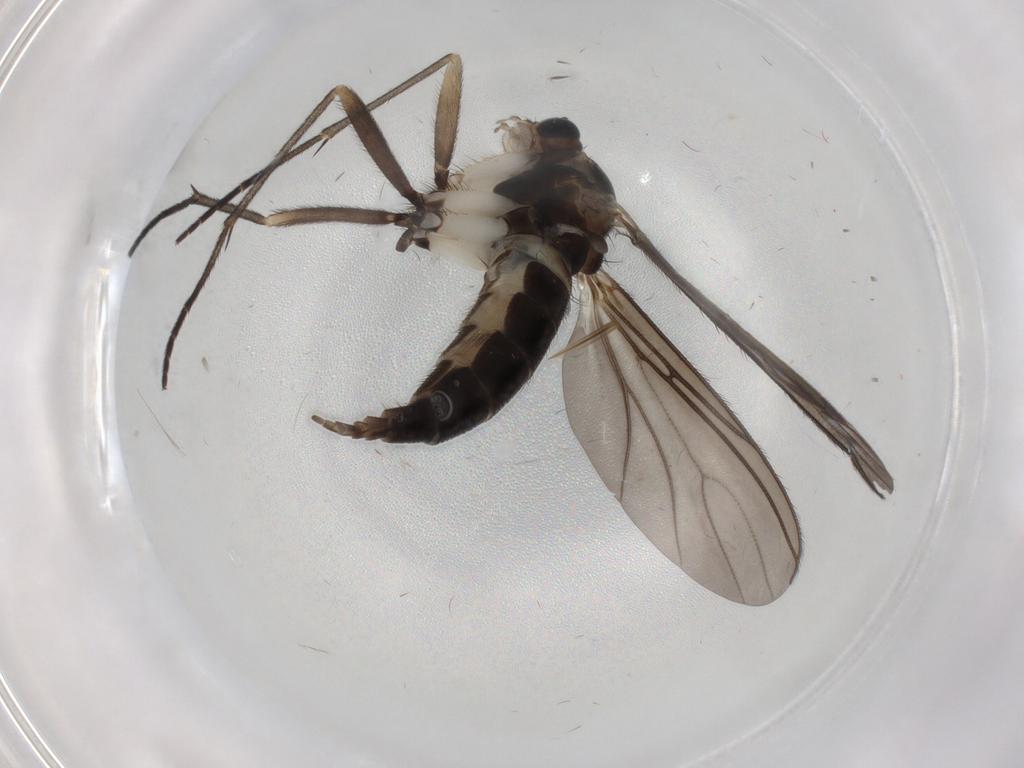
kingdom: Animalia
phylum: Arthropoda
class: Insecta
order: Diptera
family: Sciaridae
